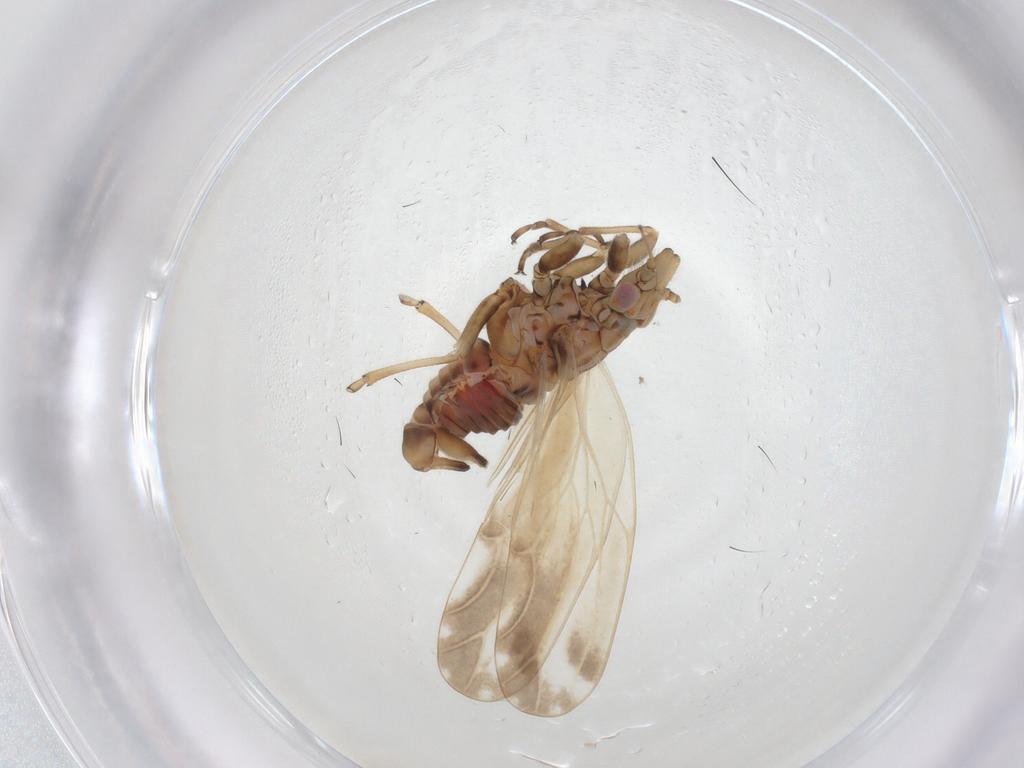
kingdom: Animalia
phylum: Arthropoda
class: Insecta
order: Hemiptera
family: Psyllidae
